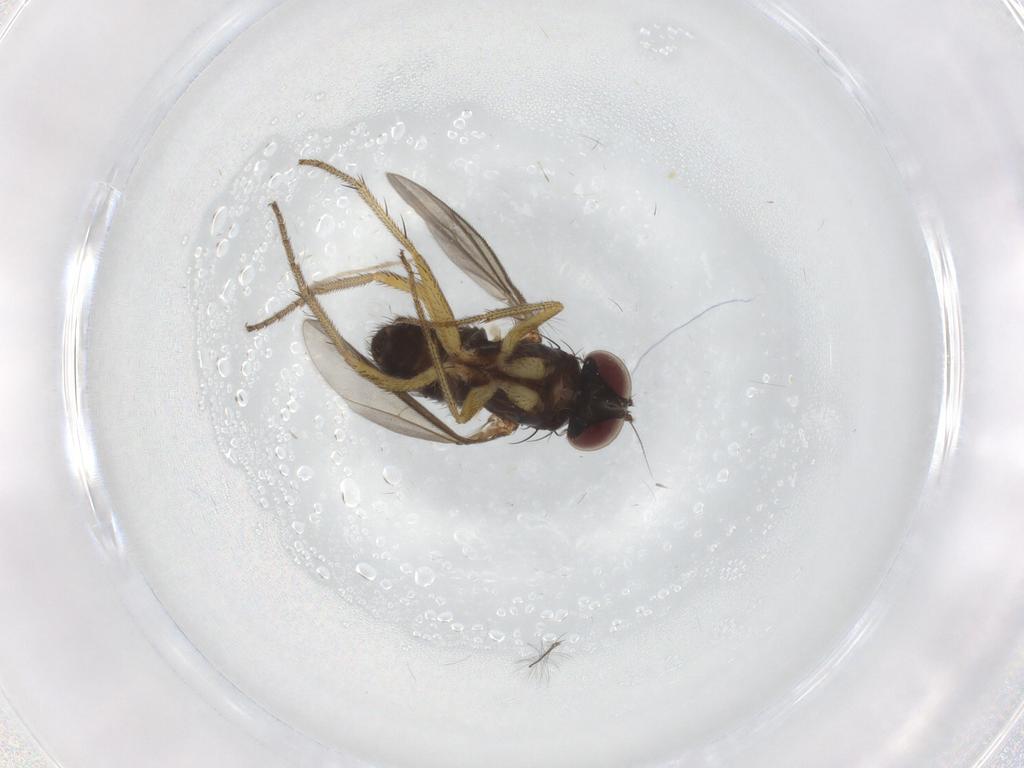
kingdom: Animalia
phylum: Arthropoda
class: Insecta
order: Diptera
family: Chironomidae
